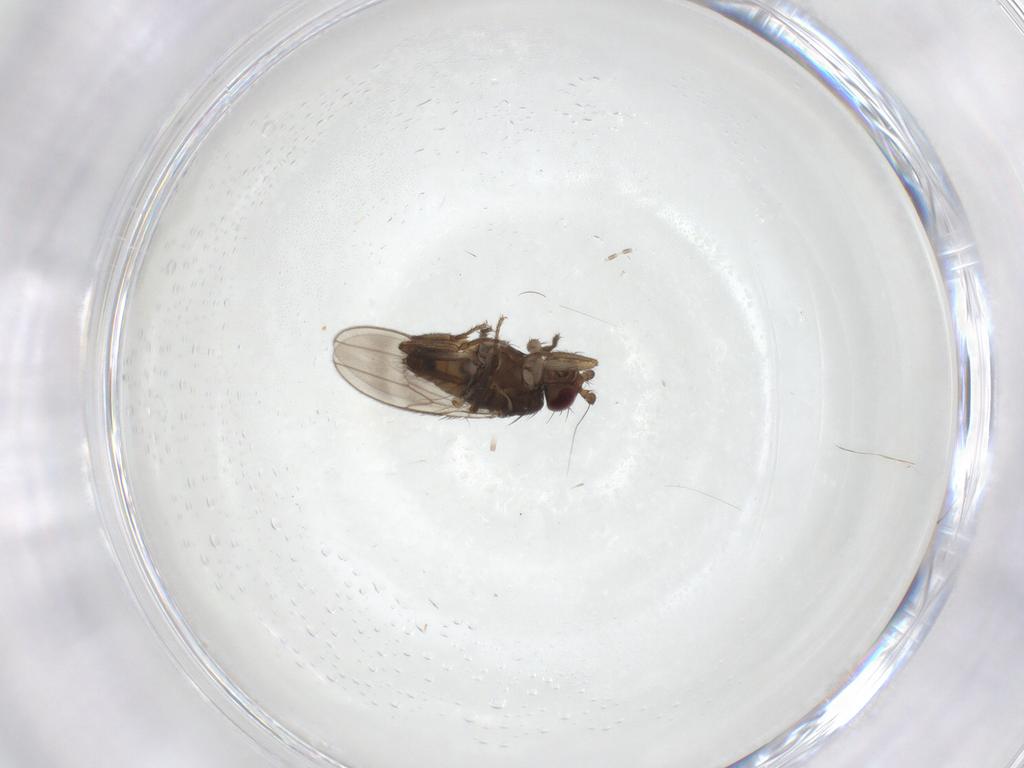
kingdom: Animalia
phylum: Arthropoda
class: Insecta
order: Diptera
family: Sphaeroceridae
